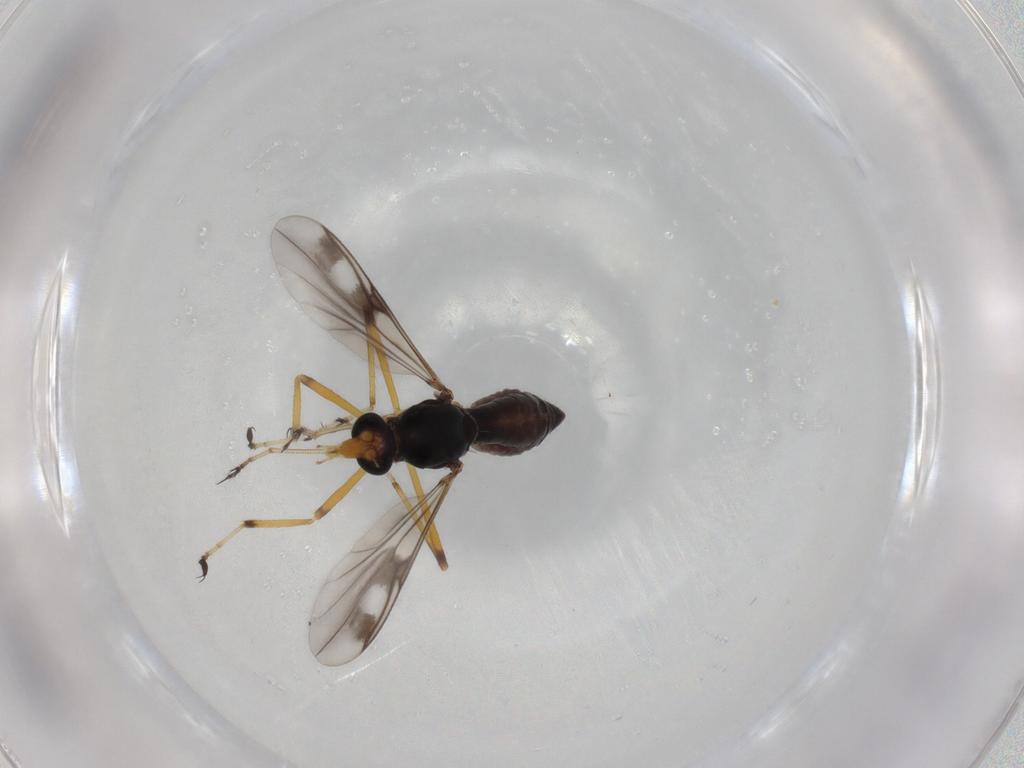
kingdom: Animalia
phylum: Arthropoda
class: Insecta
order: Diptera
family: Ceratopogonidae
